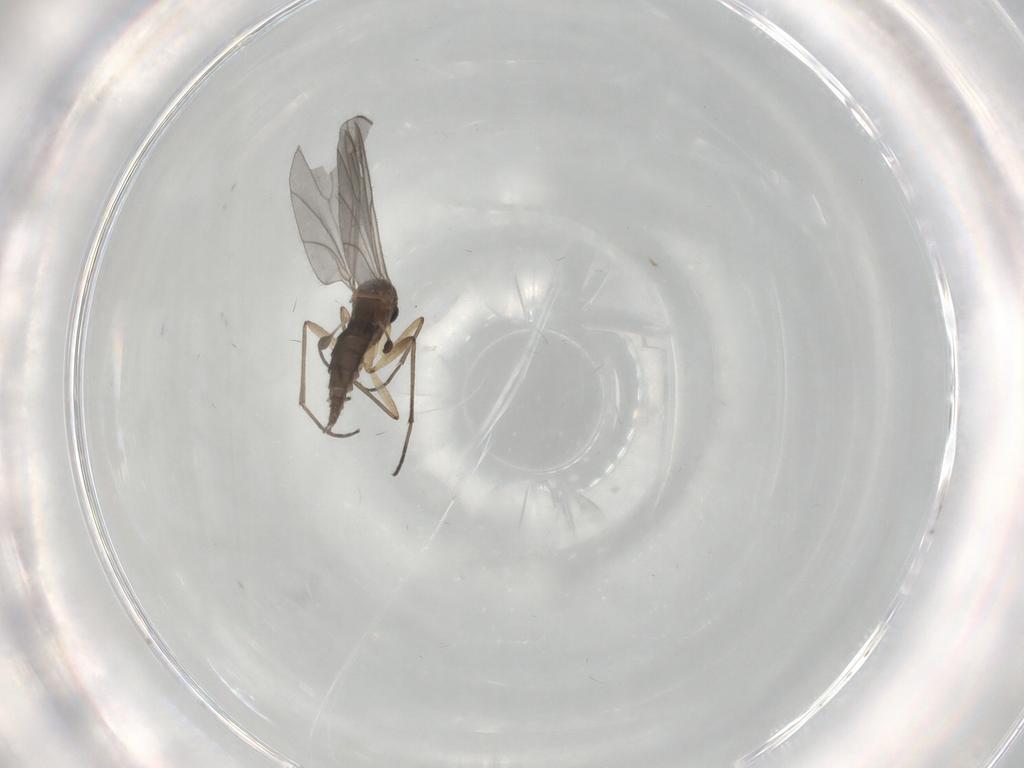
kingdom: Animalia
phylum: Arthropoda
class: Insecta
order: Diptera
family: Sciaridae
